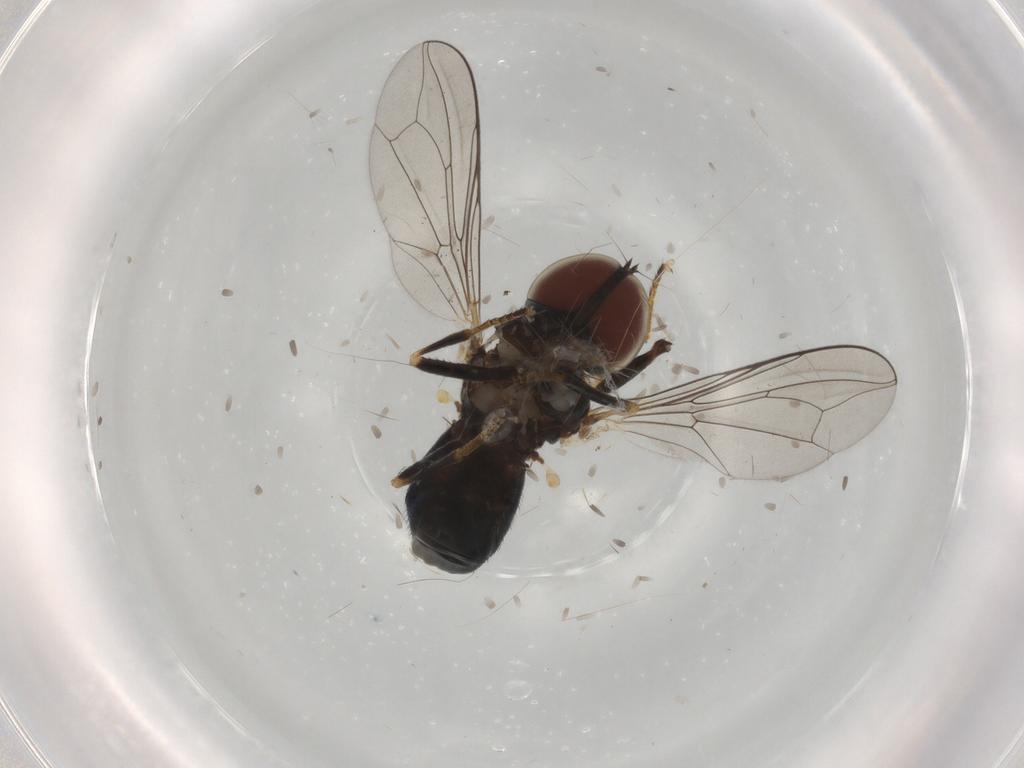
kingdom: Animalia
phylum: Arthropoda
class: Insecta
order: Diptera
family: Pipunculidae
